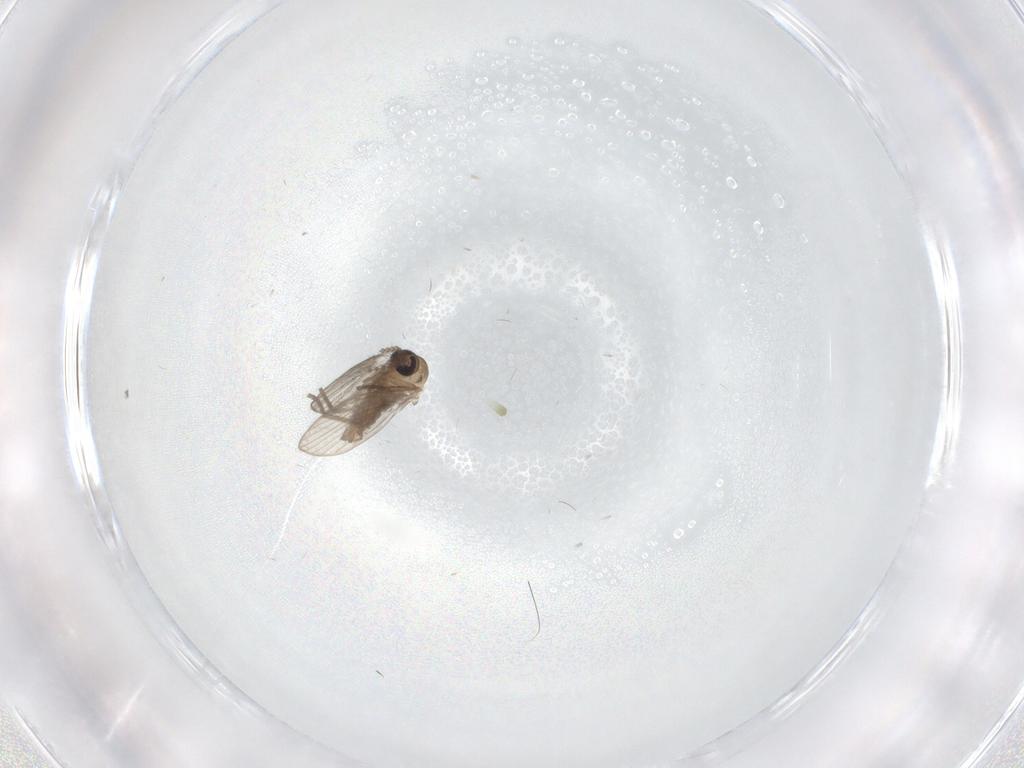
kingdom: Animalia
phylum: Arthropoda
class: Insecta
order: Diptera
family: Psychodidae
